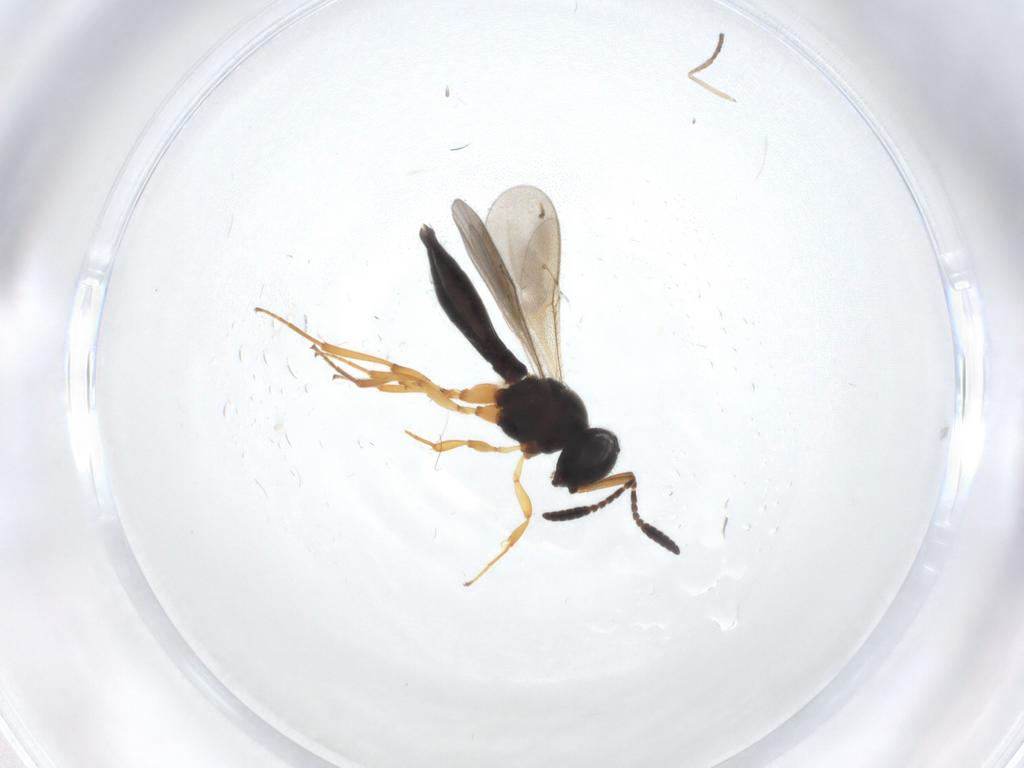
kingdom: Animalia
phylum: Arthropoda
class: Insecta
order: Hymenoptera
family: Scelionidae
